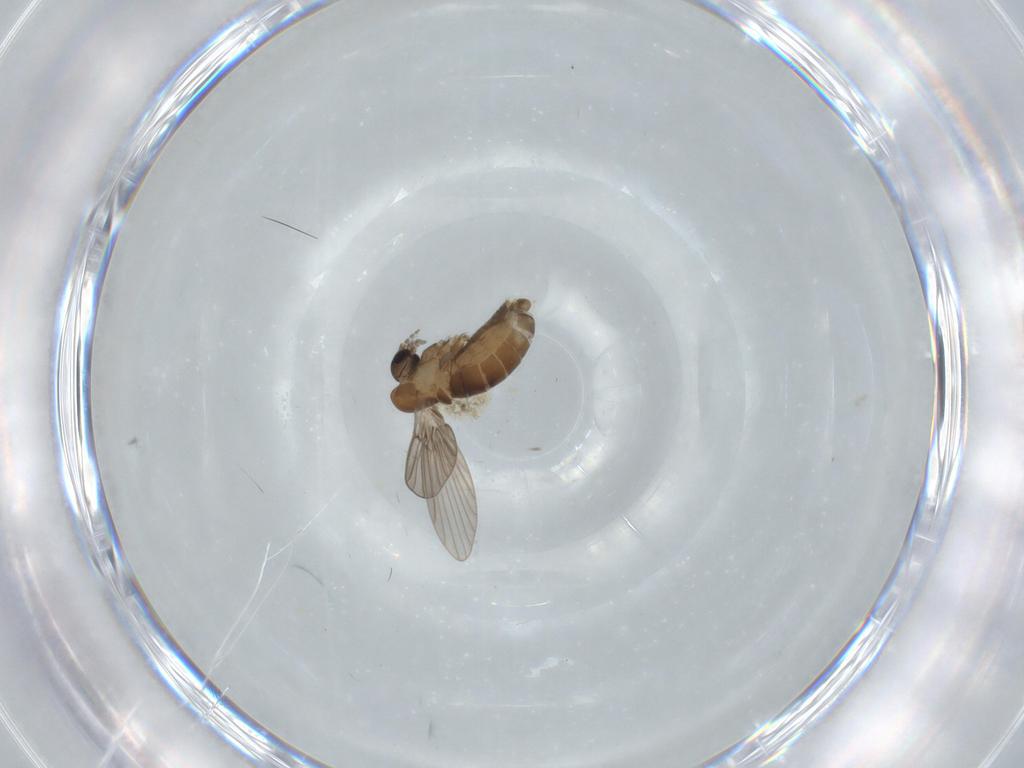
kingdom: Animalia
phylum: Arthropoda
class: Insecta
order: Diptera
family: Psychodidae
